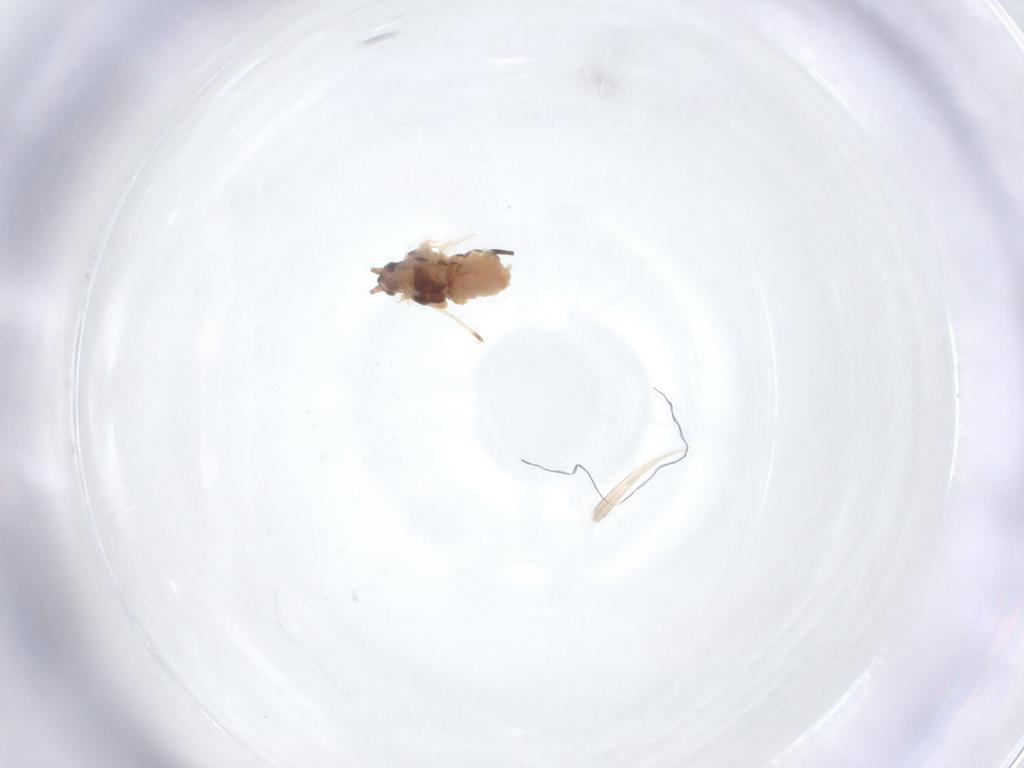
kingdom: Animalia
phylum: Arthropoda
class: Insecta
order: Hemiptera
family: Aphididae
